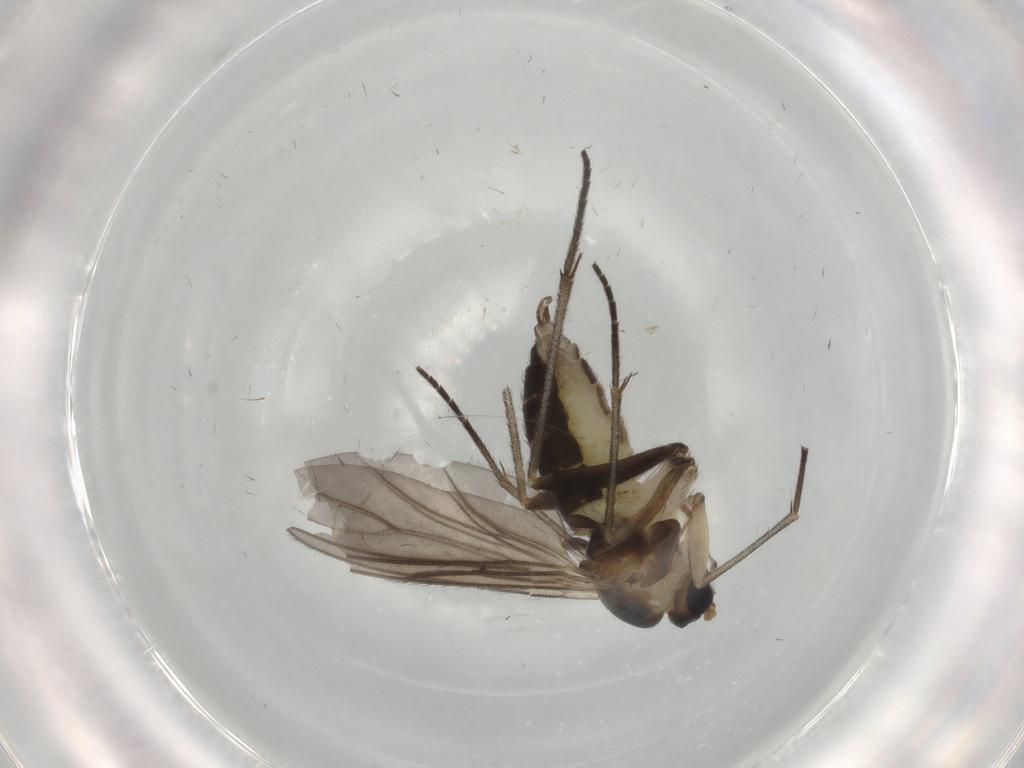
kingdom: Animalia
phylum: Arthropoda
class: Insecta
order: Diptera
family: Sciaridae
